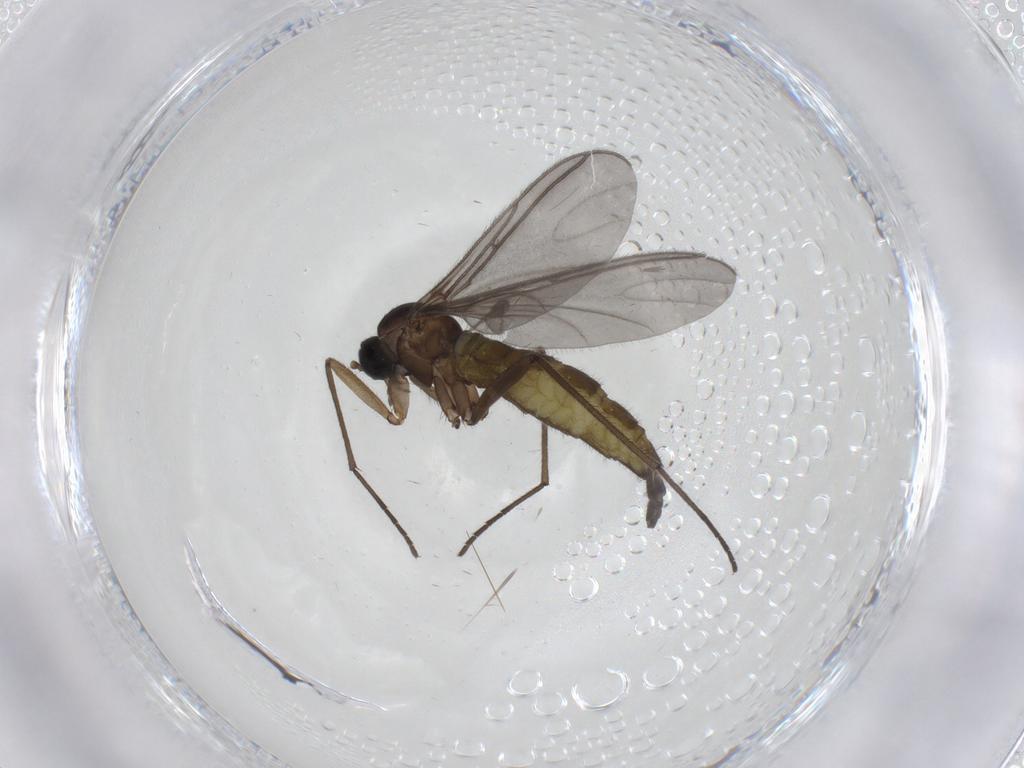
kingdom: Animalia
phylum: Arthropoda
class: Insecta
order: Diptera
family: Sciaridae
